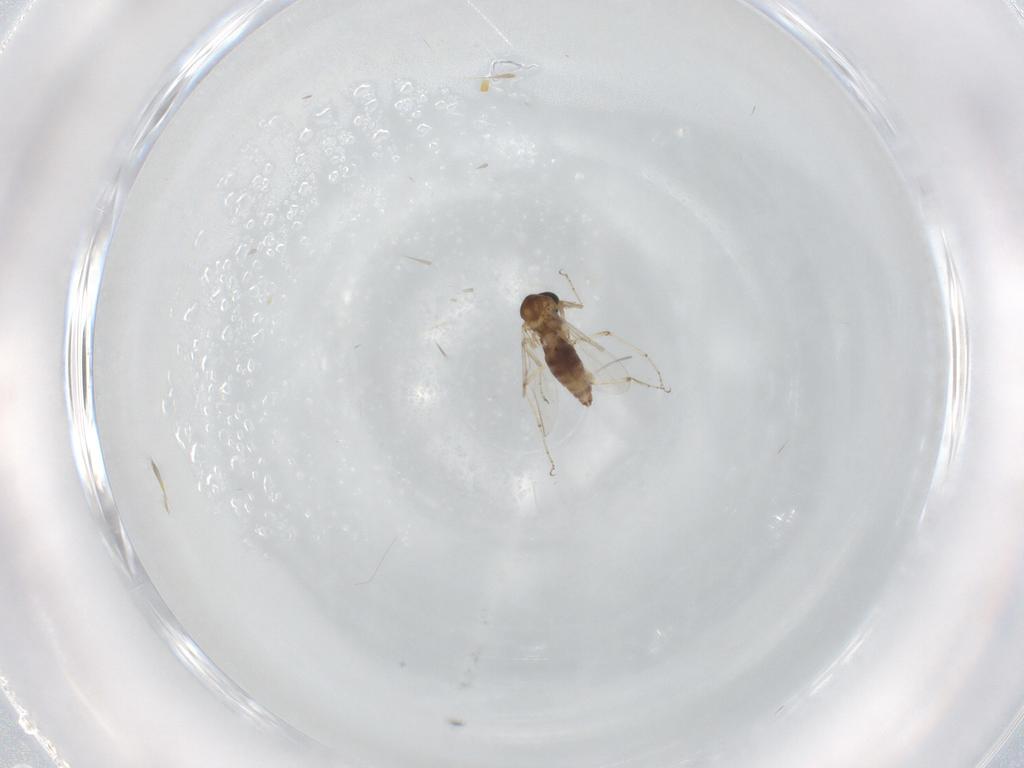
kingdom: Animalia
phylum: Arthropoda
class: Insecta
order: Diptera
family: Ceratopogonidae
